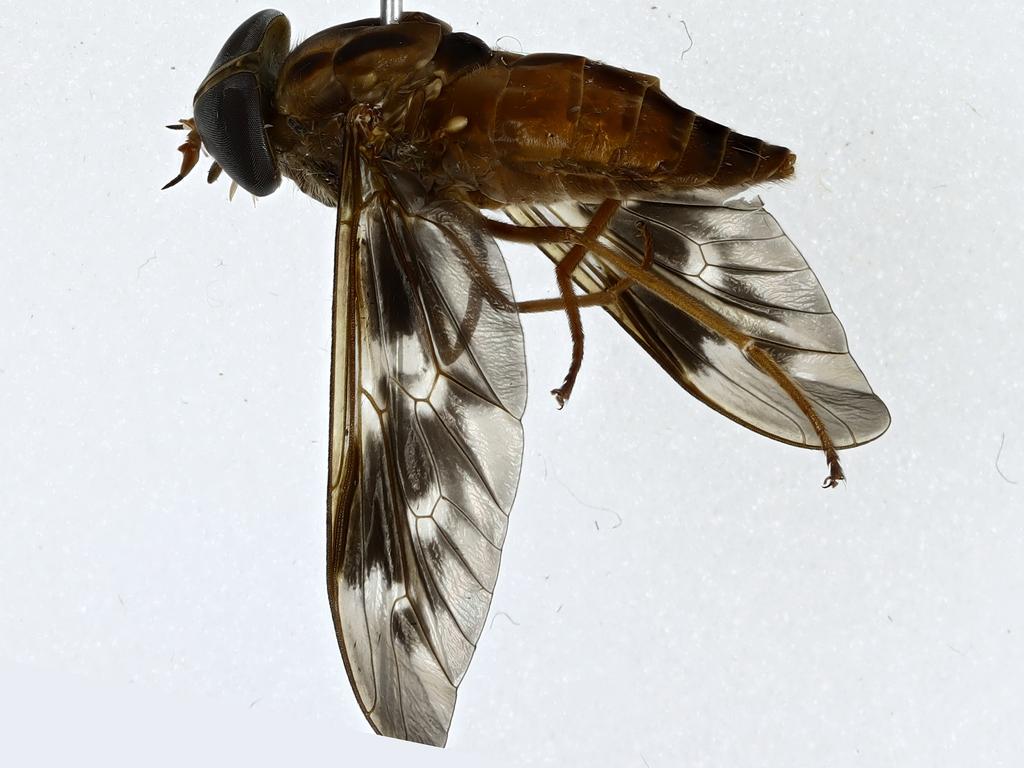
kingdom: Animalia
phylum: Arthropoda
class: Insecta
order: Diptera
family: Tabanidae
